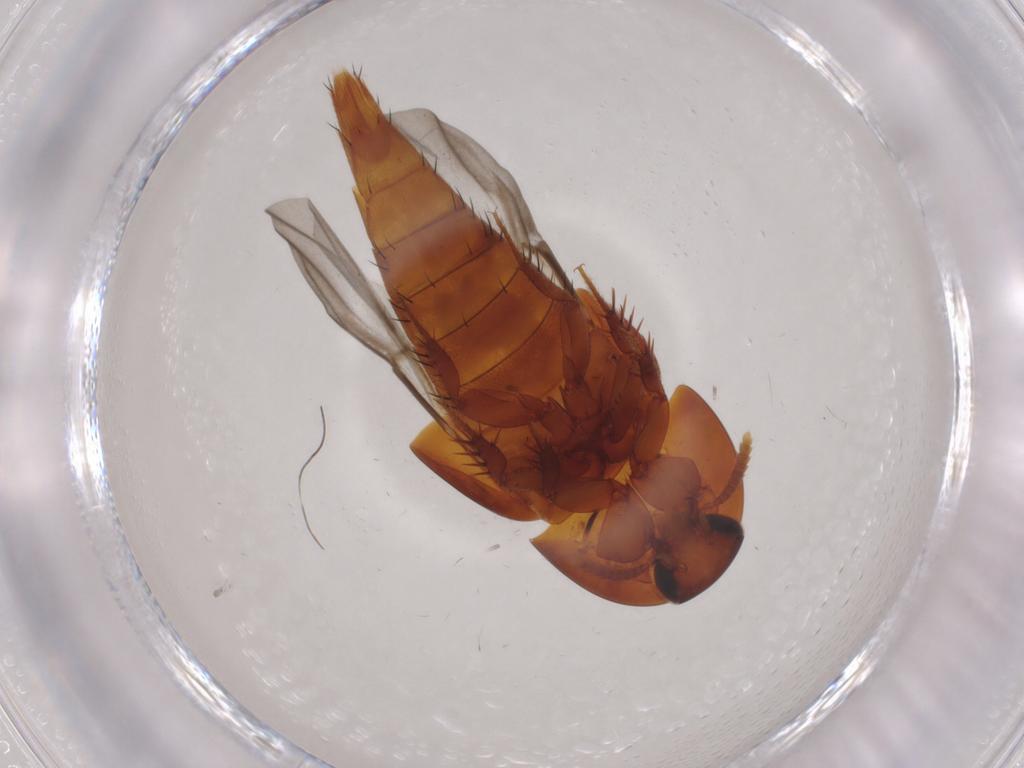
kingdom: Animalia
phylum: Arthropoda
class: Insecta
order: Coleoptera
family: Staphylinidae
